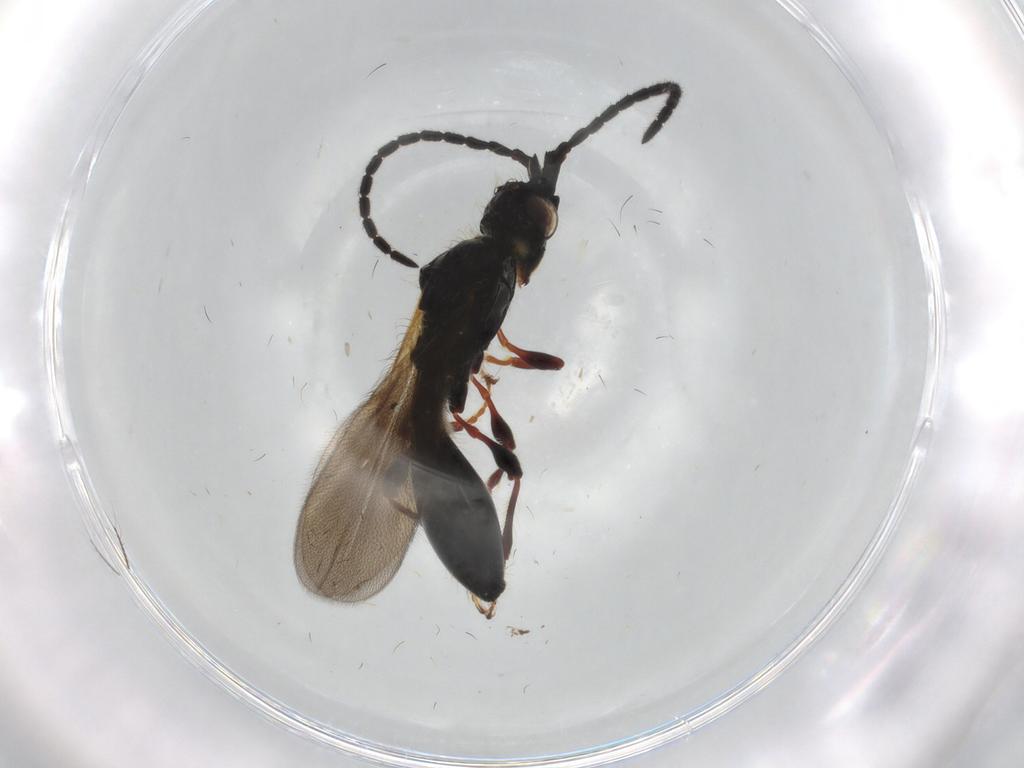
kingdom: Animalia
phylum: Arthropoda
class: Insecta
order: Hymenoptera
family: Diapriidae
